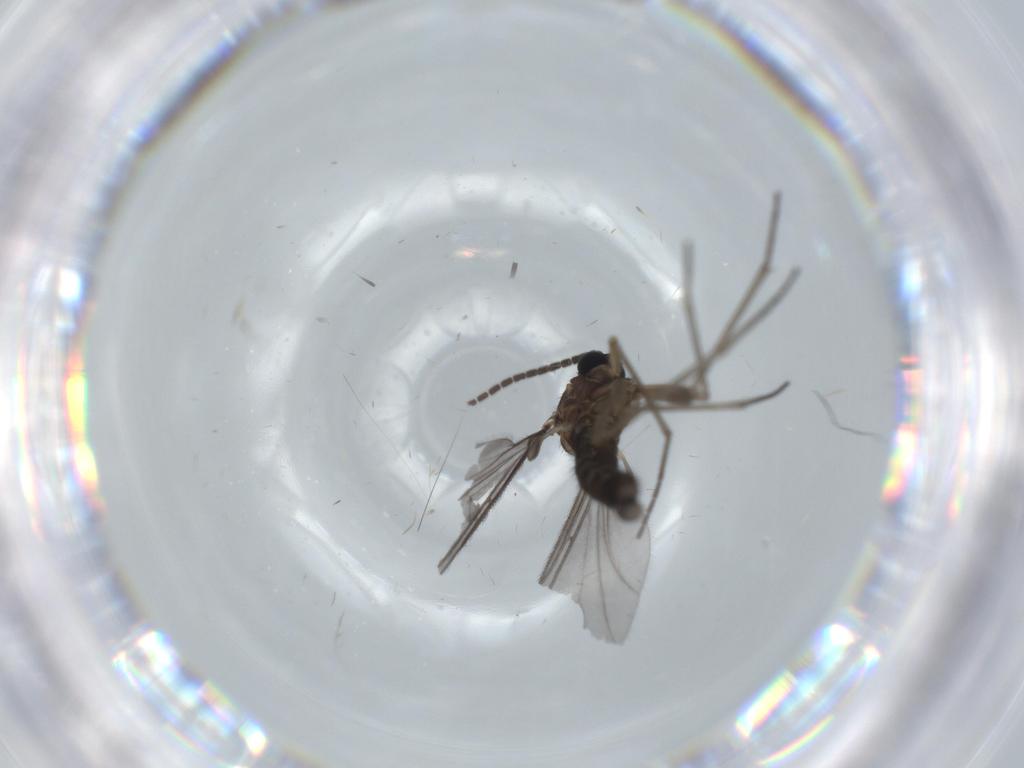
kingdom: Animalia
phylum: Arthropoda
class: Insecta
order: Diptera
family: Sciaridae
